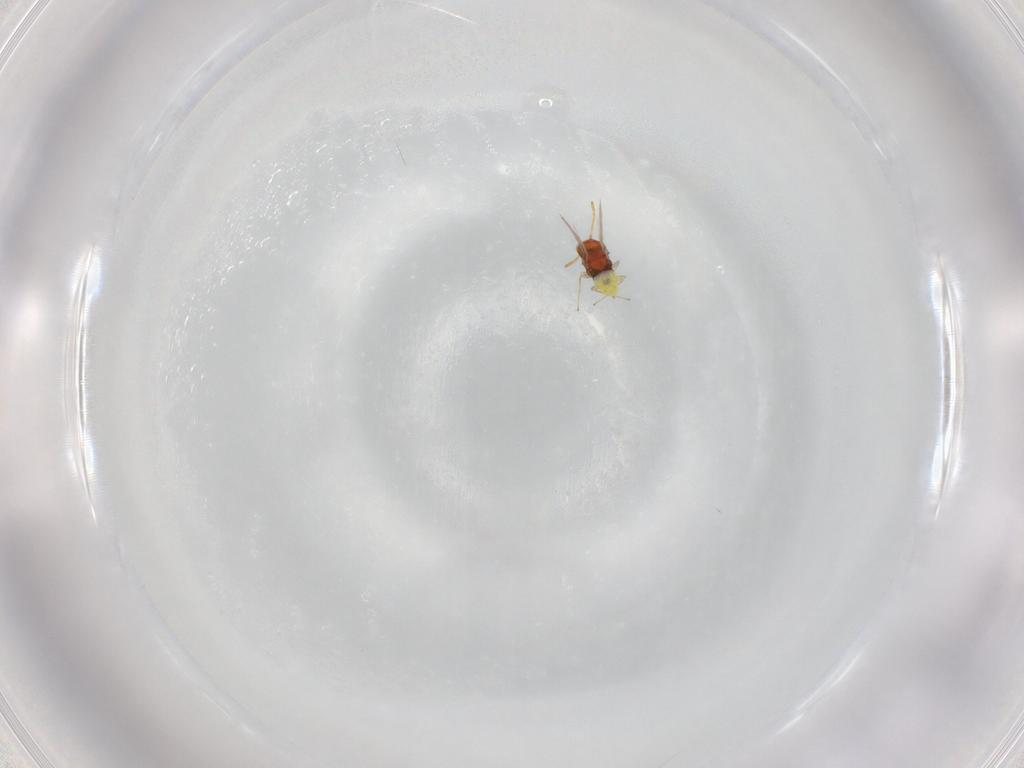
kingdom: Animalia
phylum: Arthropoda
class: Insecta
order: Hymenoptera
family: Aphelinidae
